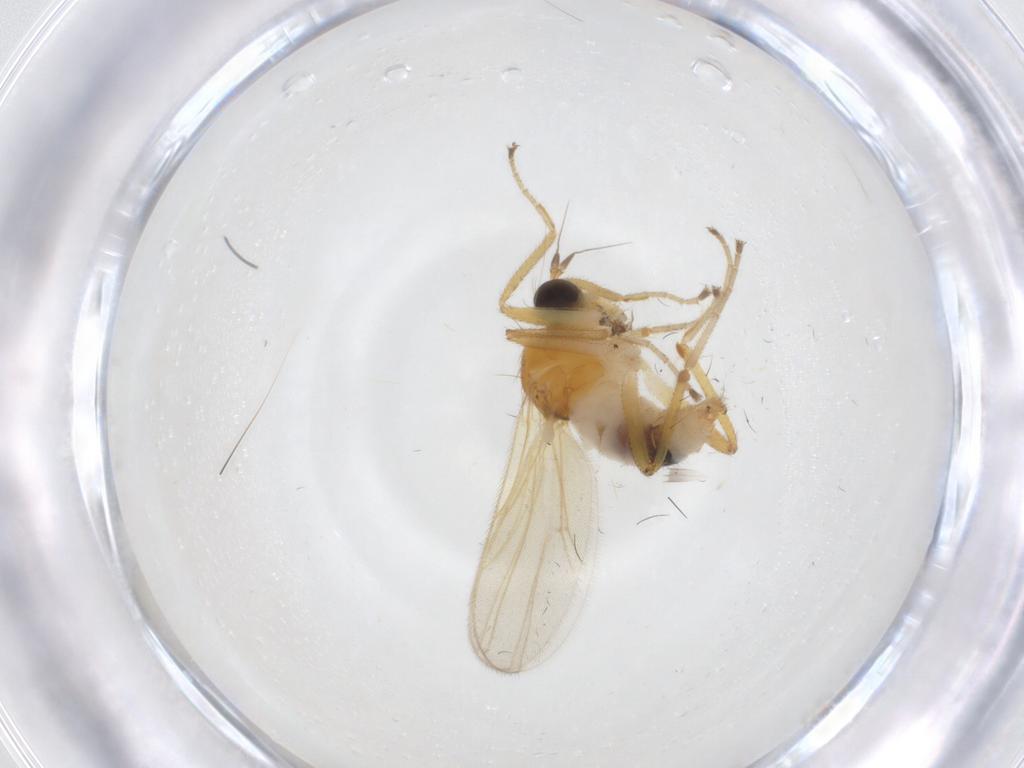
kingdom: Animalia
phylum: Arthropoda
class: Insecta
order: Diptera
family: Hybotidae
